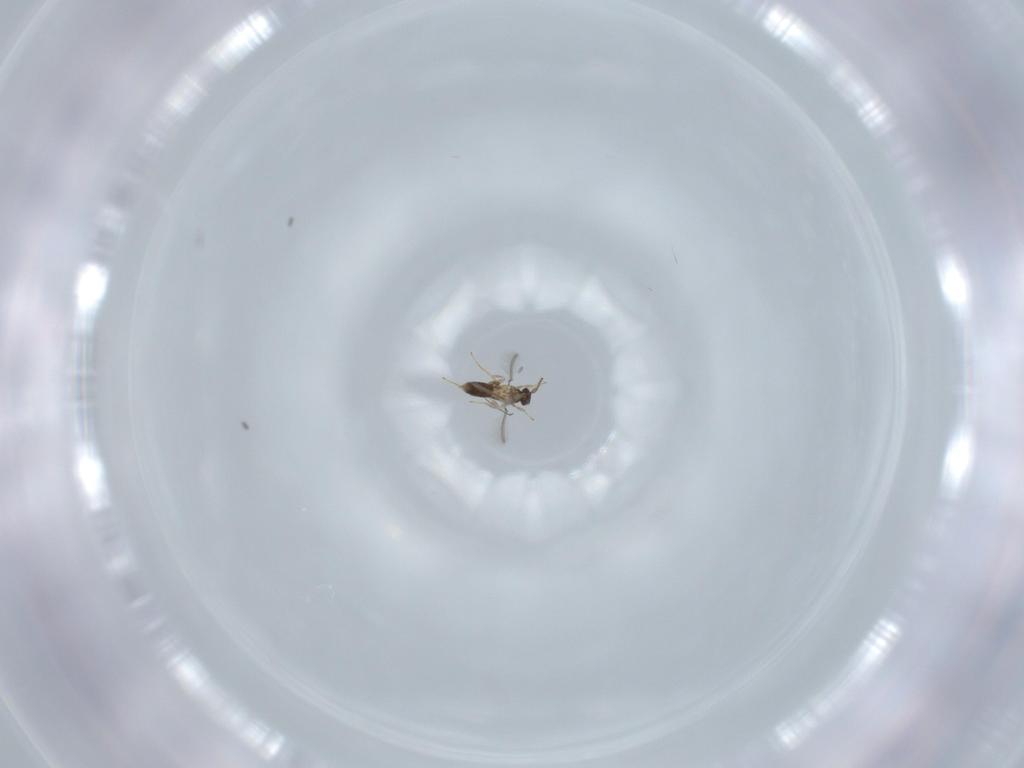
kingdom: Animalia
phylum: Arthropoda
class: Insecta
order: Hymenoptera
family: Mymaridae
